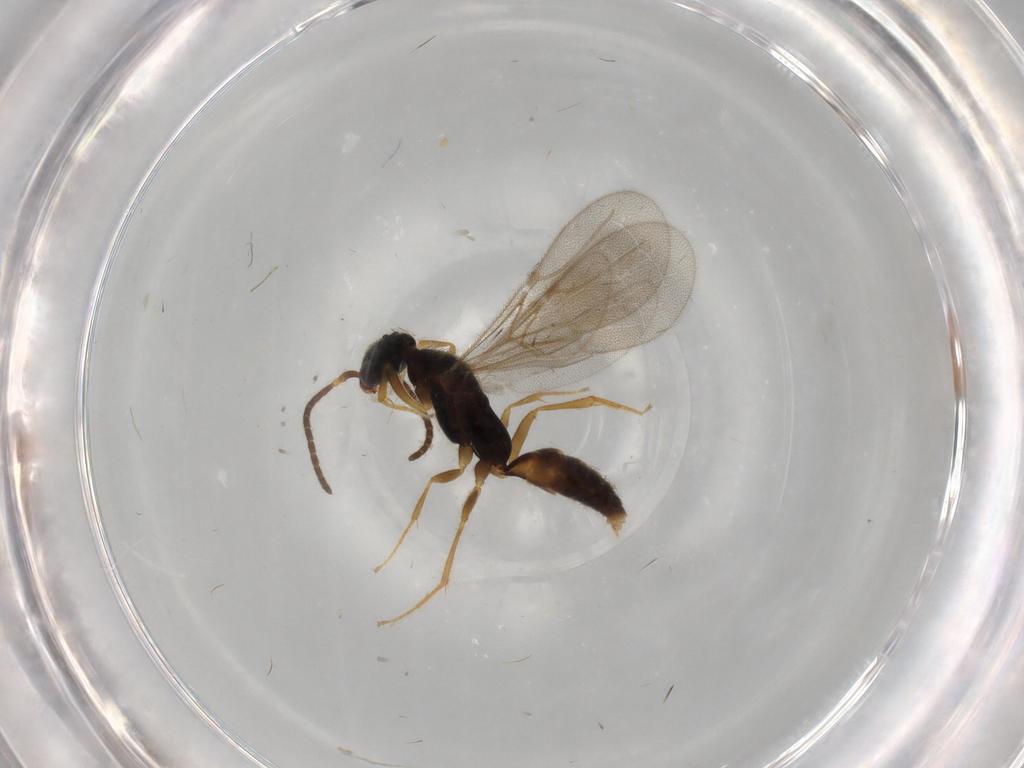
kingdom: Animalia
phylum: Arthropoda
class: Insecta
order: Hymenoptera
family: Bethylidae
